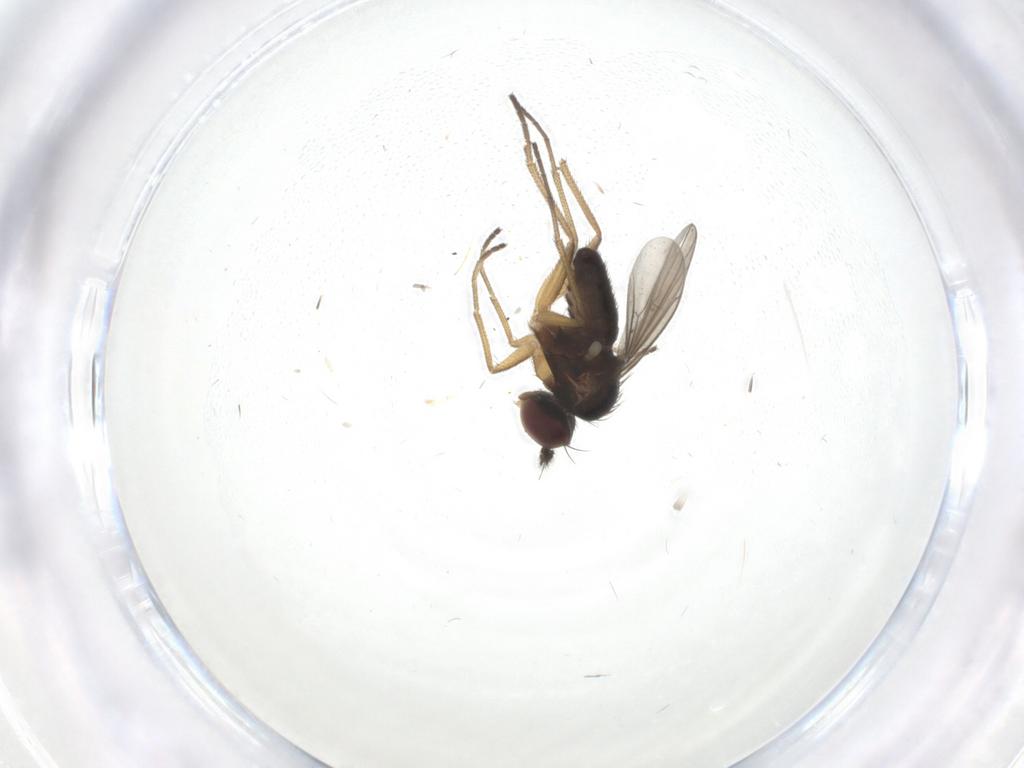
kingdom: Animalia
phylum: Arthropoda
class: Insecta
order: Diptera
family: Dolichopodidae
